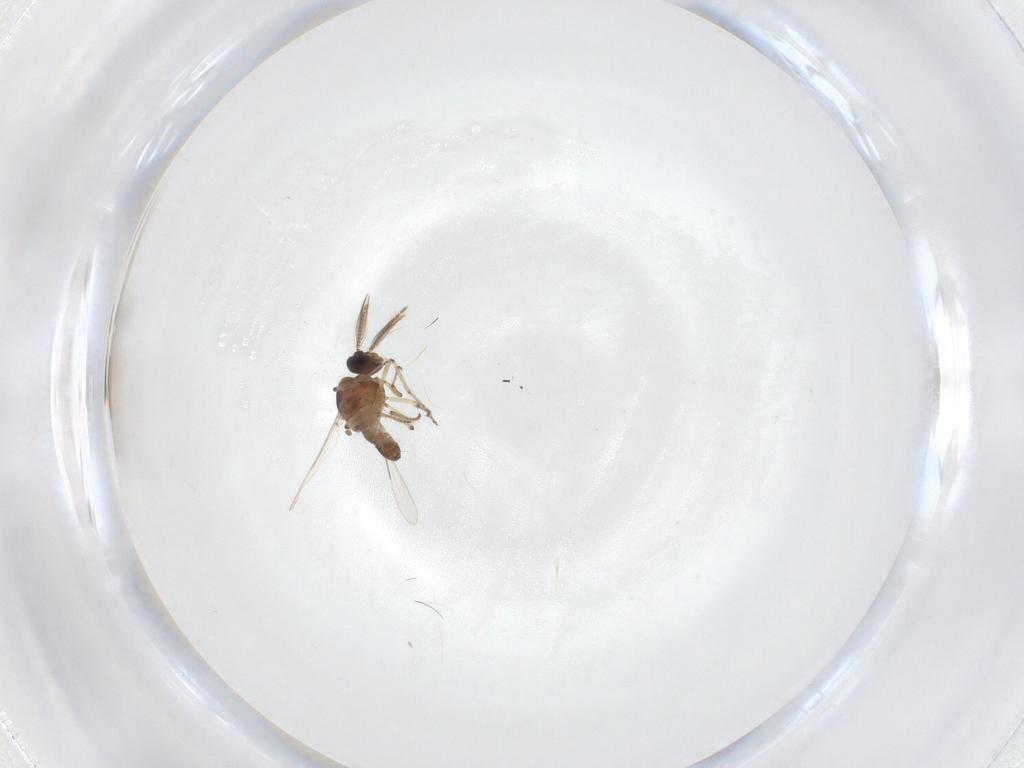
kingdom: Animalia
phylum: Arthropoda
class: Insecta
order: Diptera
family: Ceratopogonidae
